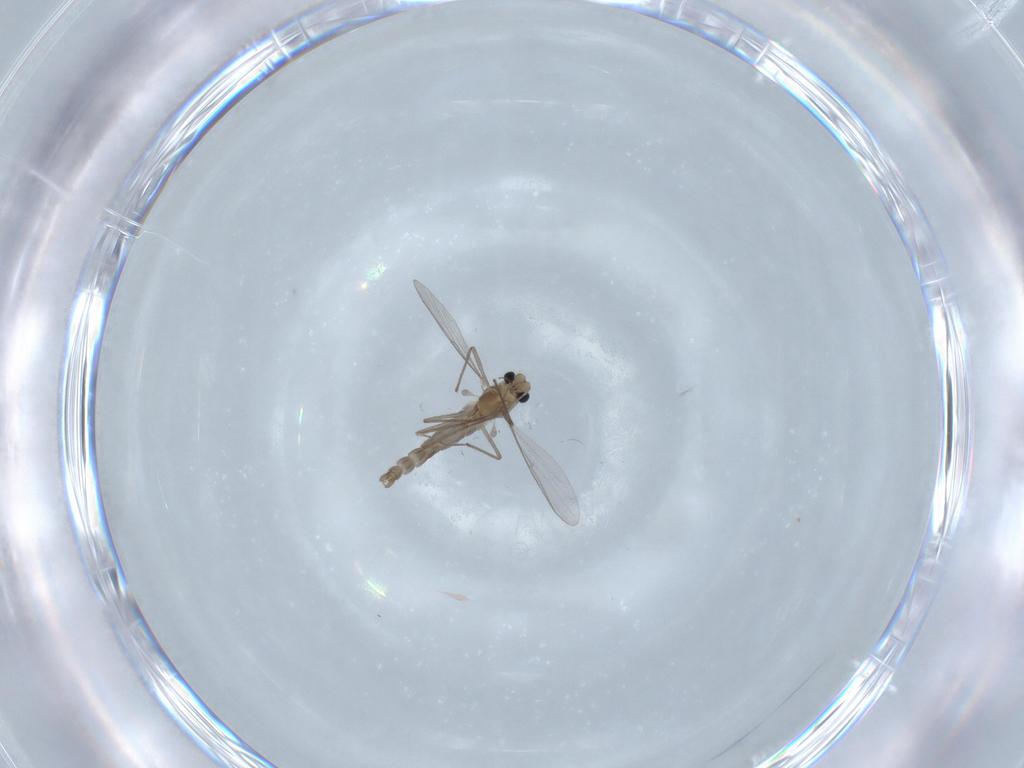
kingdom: Animalia
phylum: Arthropoda
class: Insecta
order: Diptera
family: Chironomidae
